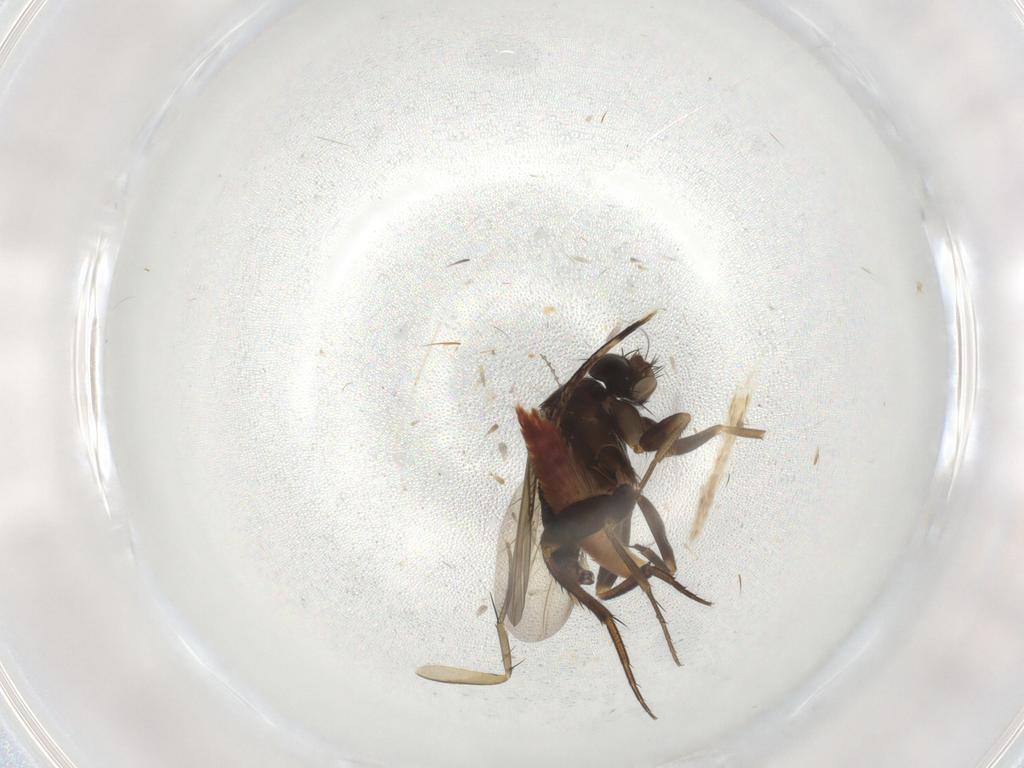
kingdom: Animalia
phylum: Arthropoda
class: Insecta
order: Diptera
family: Phoridae
